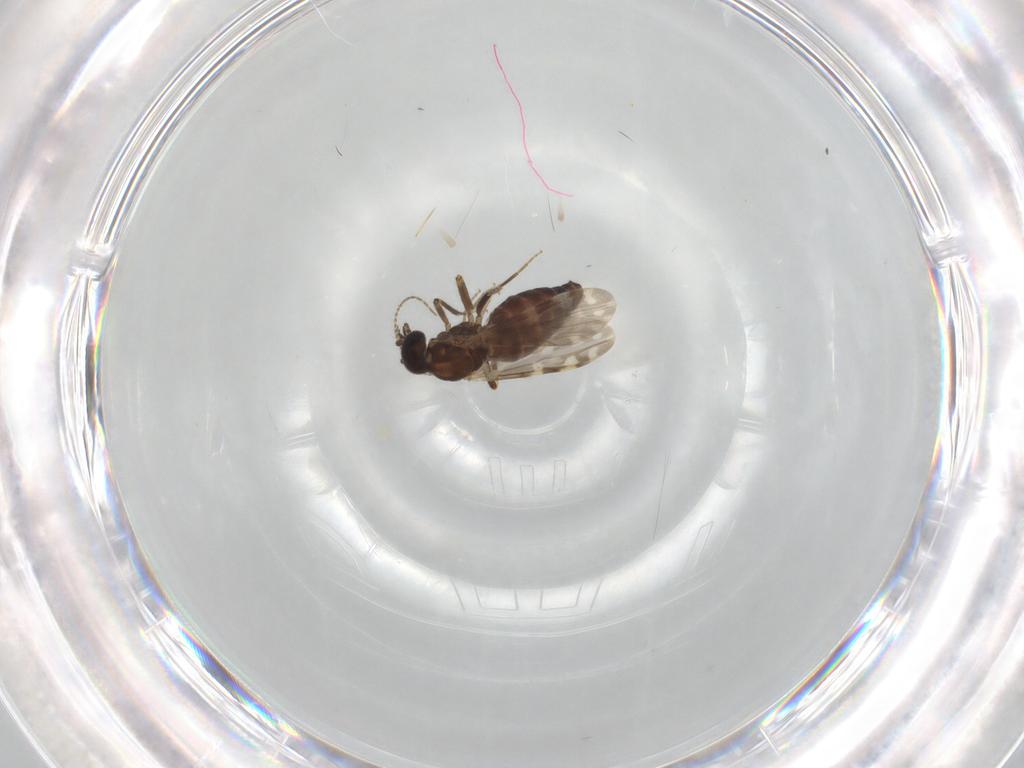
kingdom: Animalia
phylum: Arthropoda
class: Insecta
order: Diptera
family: Ceratopogonidae
